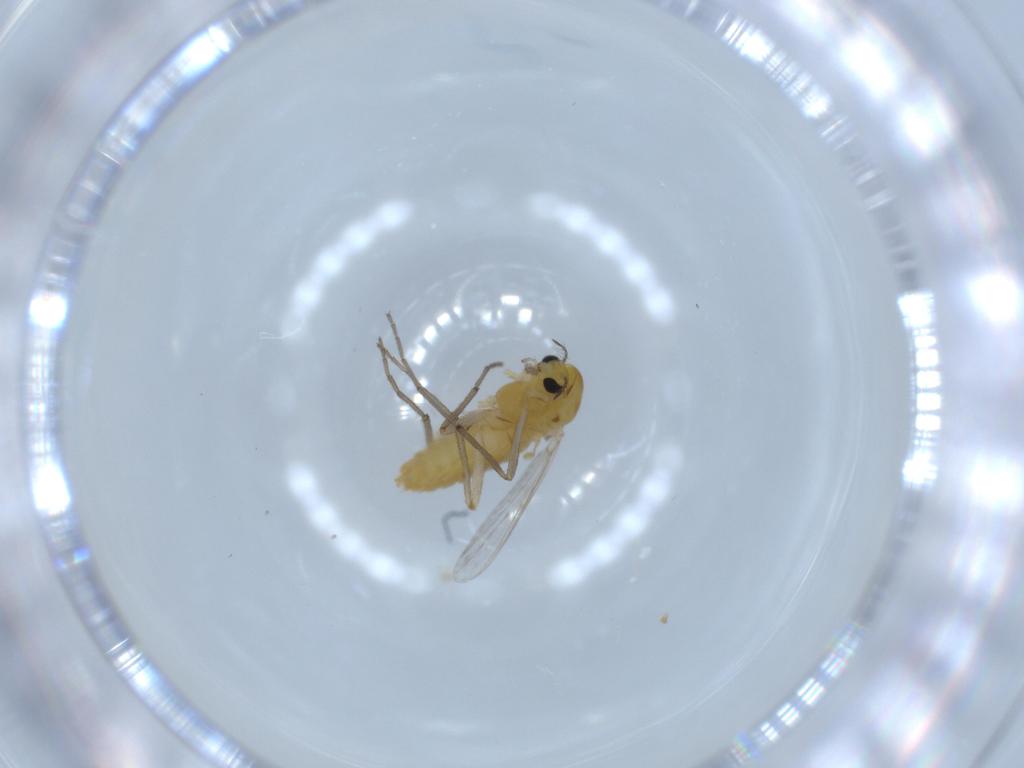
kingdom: Animalia
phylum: Arthropoda
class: Insecta
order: Diptera
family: Chironomidae
